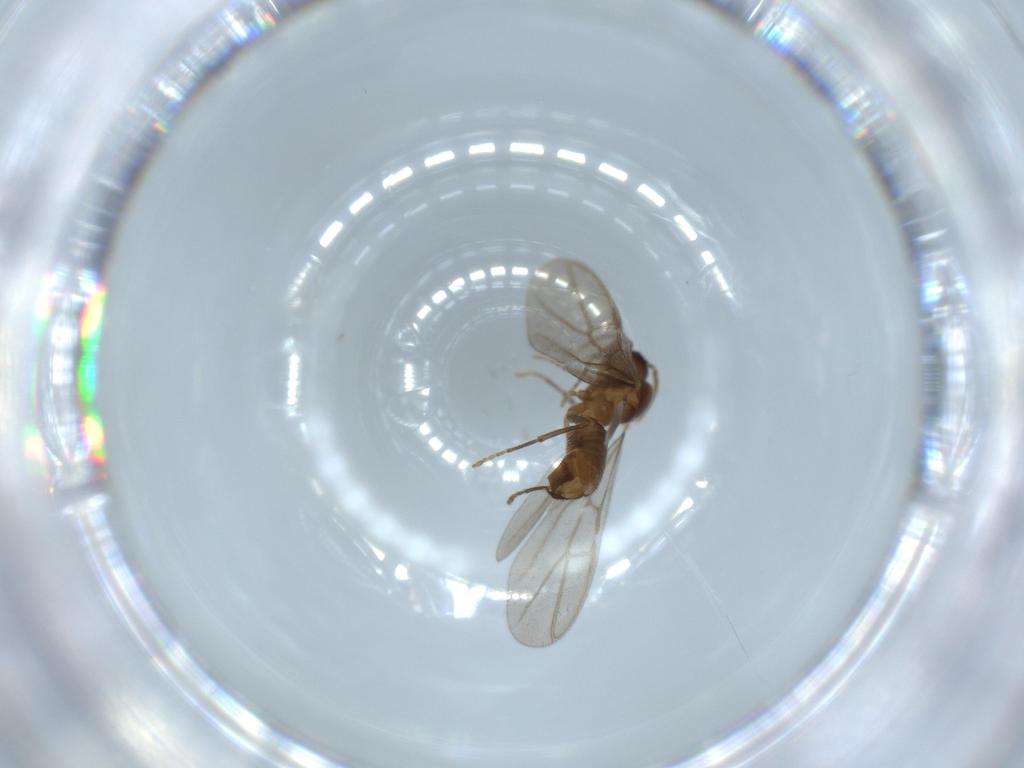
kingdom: Animalia
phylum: Arthropoda
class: Insecta
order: Hymenoptera
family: Formicidae
